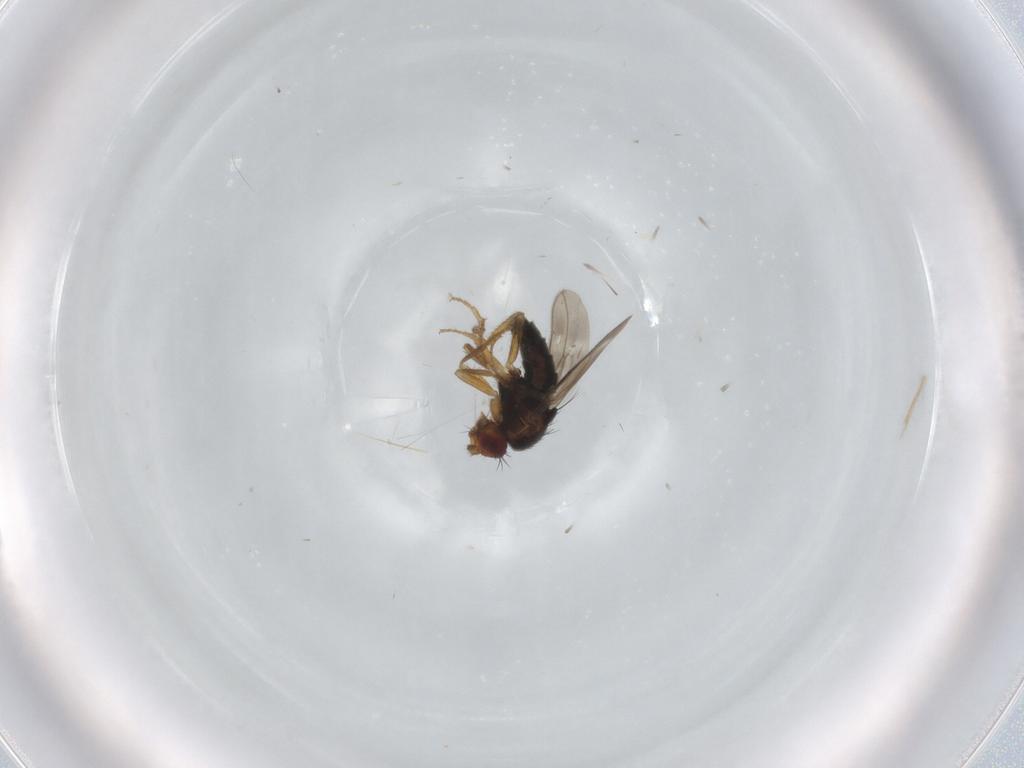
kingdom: Animalia
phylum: Arthropoda
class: Insecta
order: Diptera
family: Sphaeroceridae
